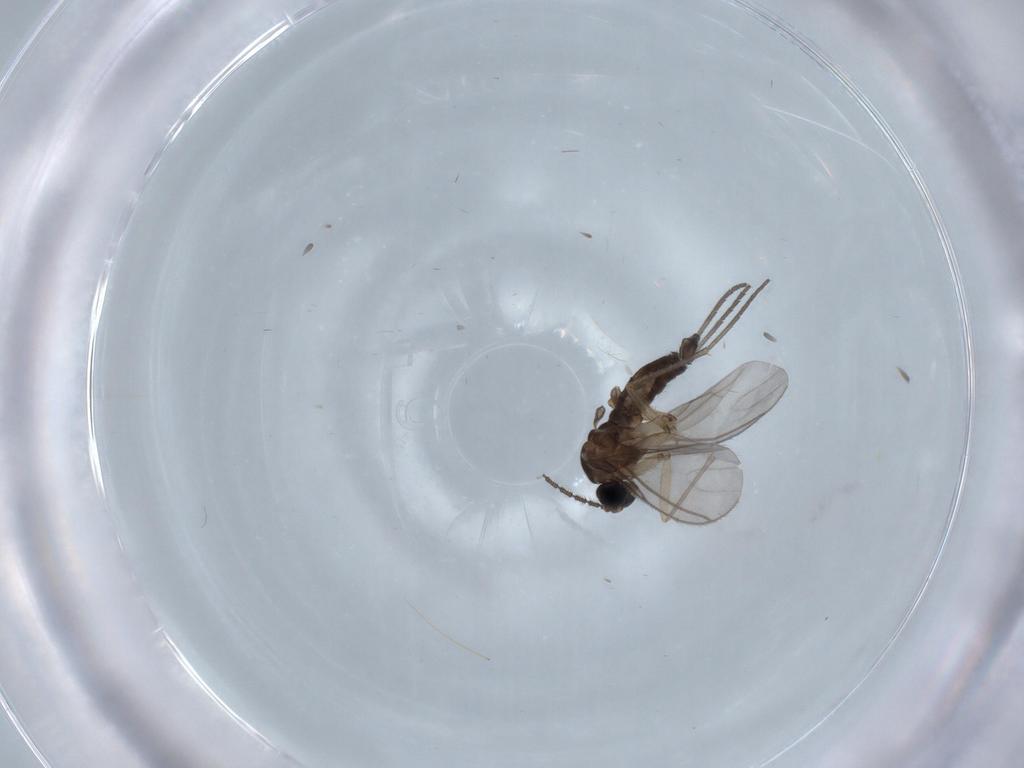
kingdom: Animalia
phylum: Arthropoda
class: Insecta
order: Diptera
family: Sciaridae
